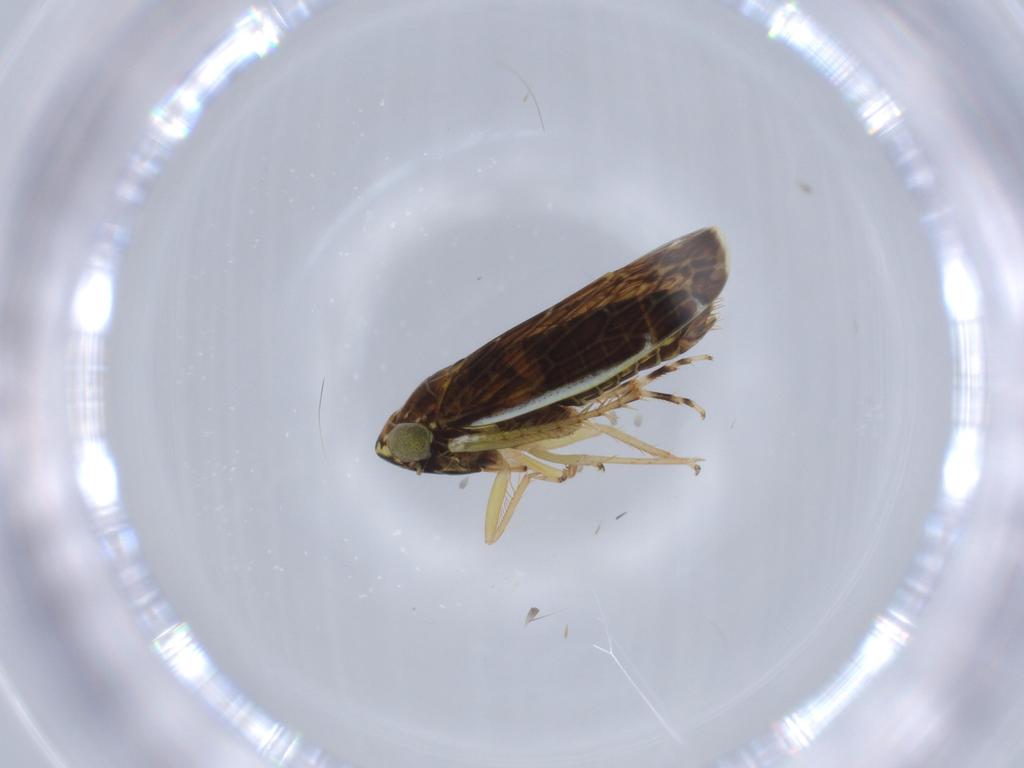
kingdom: Animalia
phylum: Arthropoda
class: Insecta
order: Hemiptera
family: Cicadellidae
